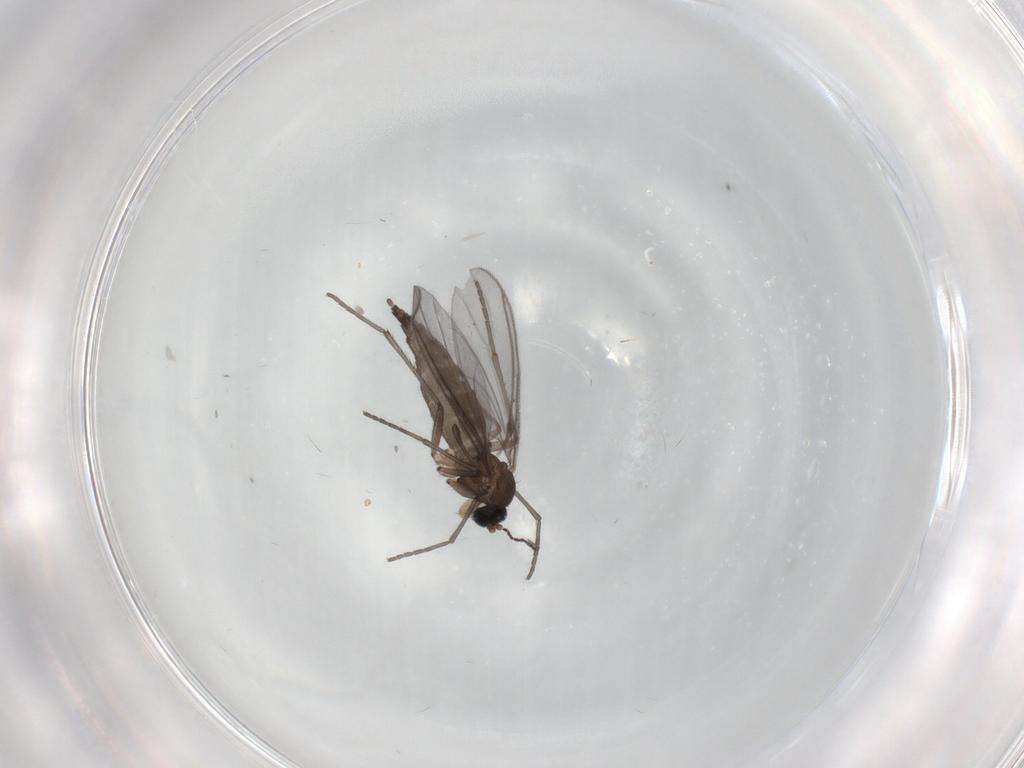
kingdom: Animalia
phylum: Arthropoda
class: Insecta
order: Diptera
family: Sciaridae
